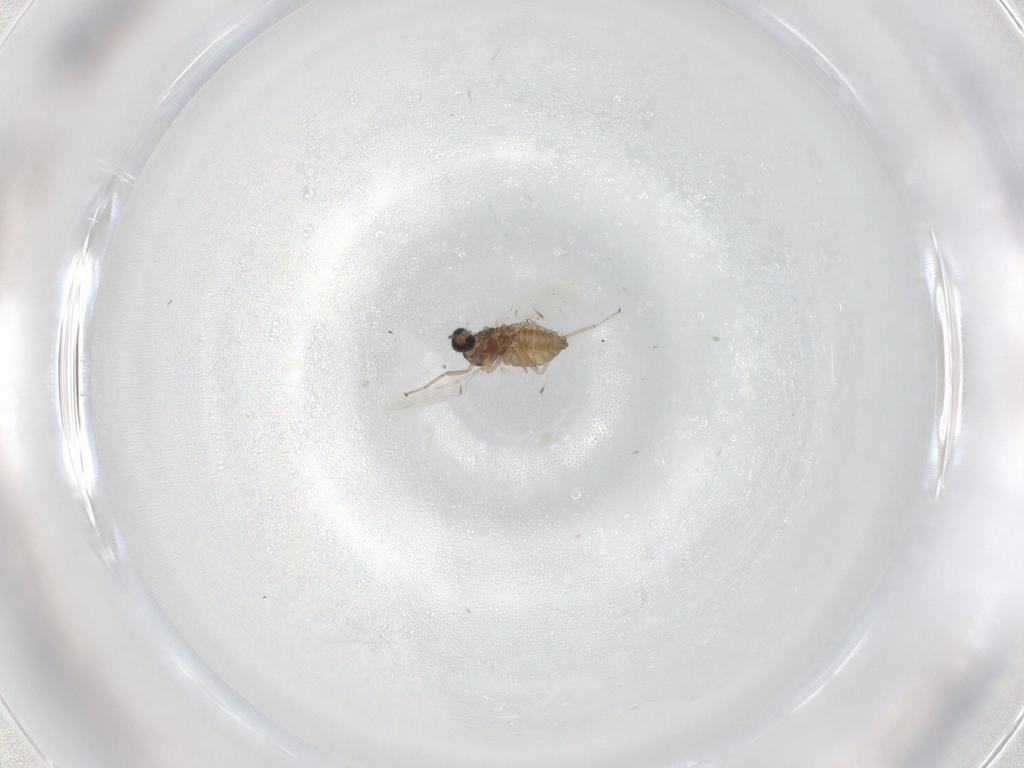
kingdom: Animalia
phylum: Arthropoda
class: Insecta
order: Diptera
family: Cecidomyiidae
